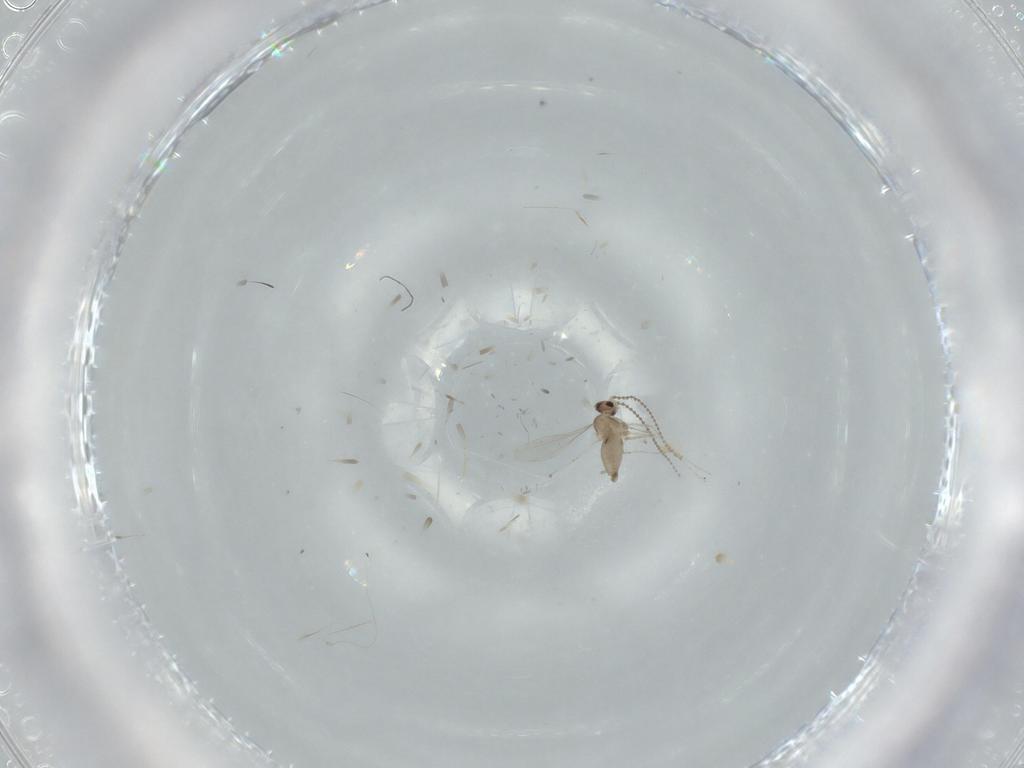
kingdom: Animalia
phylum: Arthropoda
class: Insecta
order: Diptera
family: Cecidomyiidae
